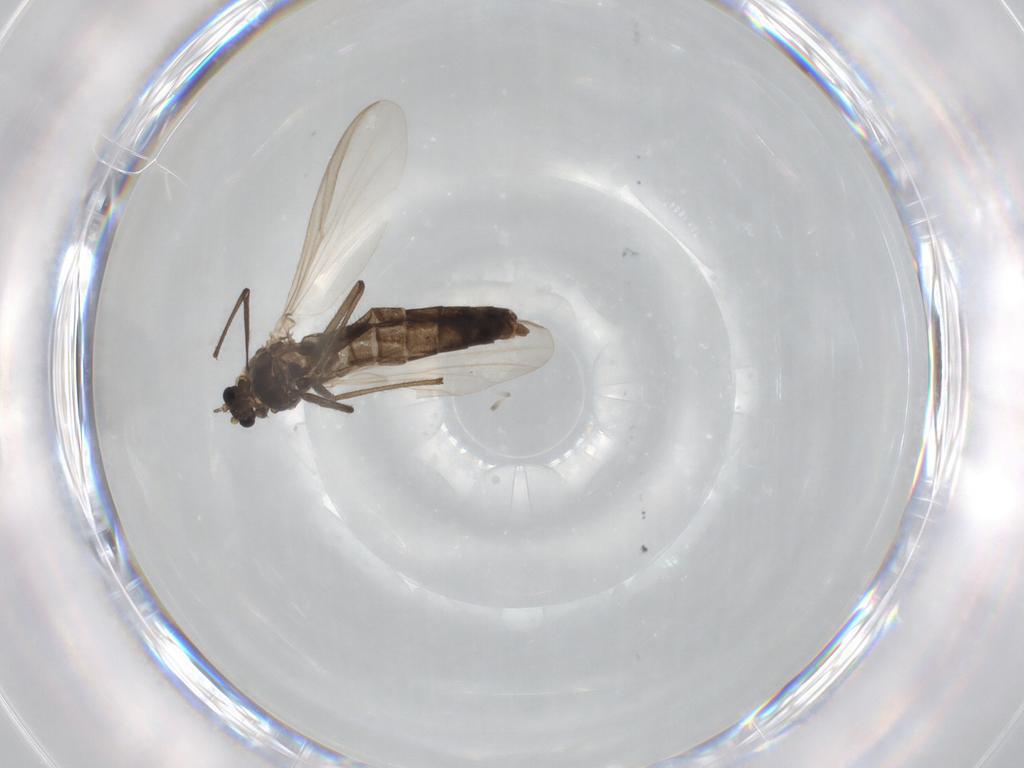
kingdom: Animalia
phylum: Arthropoda
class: Insecta
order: Diptera
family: Chironomidae
